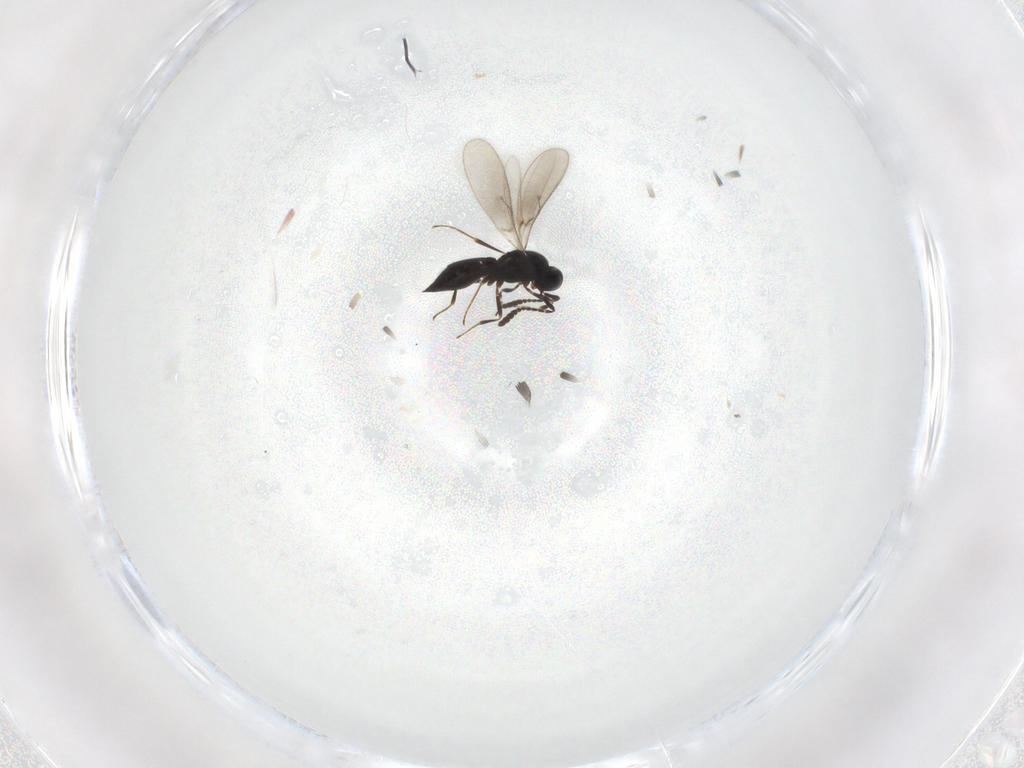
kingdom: Animalia
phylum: Arthropoda
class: Insecta
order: Hymenoptera
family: Scelionidae
